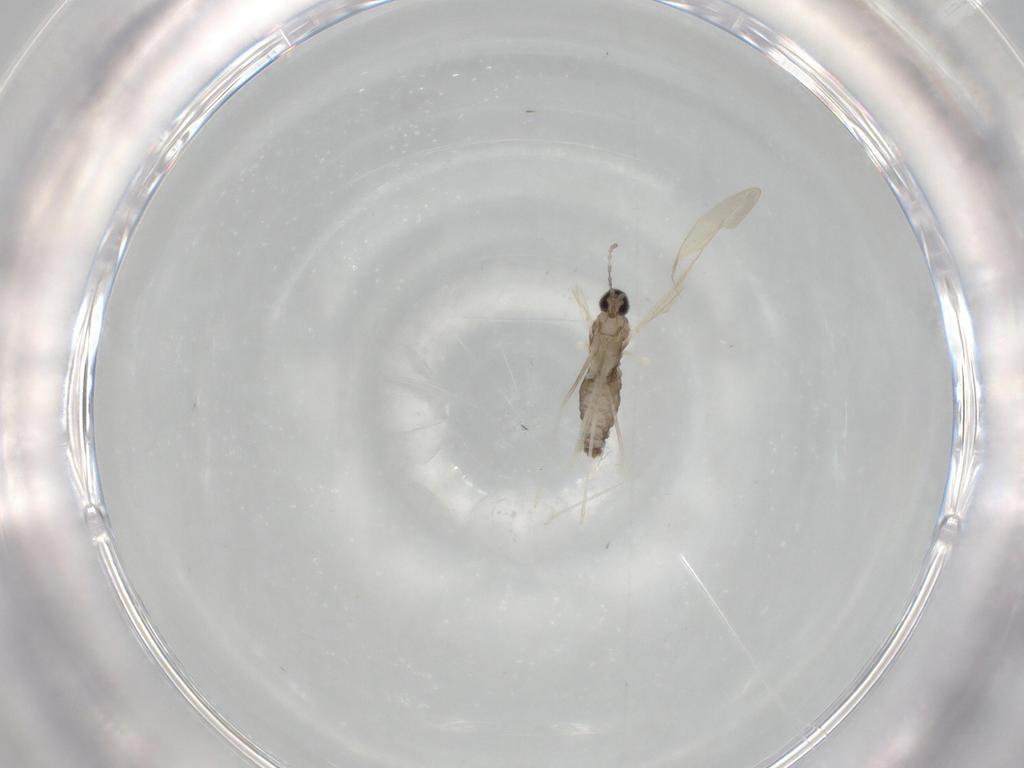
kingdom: Animalia
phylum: Arthropoda
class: Insecta
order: Diptera
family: Cecidomyiidae
